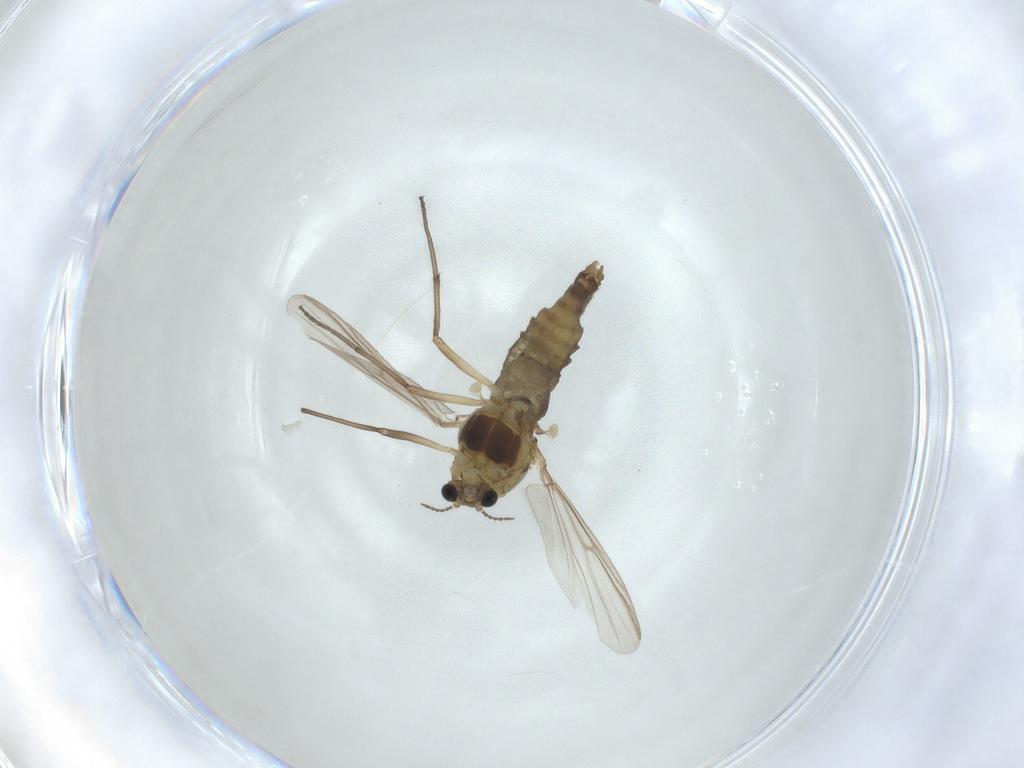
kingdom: Animalia
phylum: Arthropoda
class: Insecta
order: Diptera
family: Chironomidae
